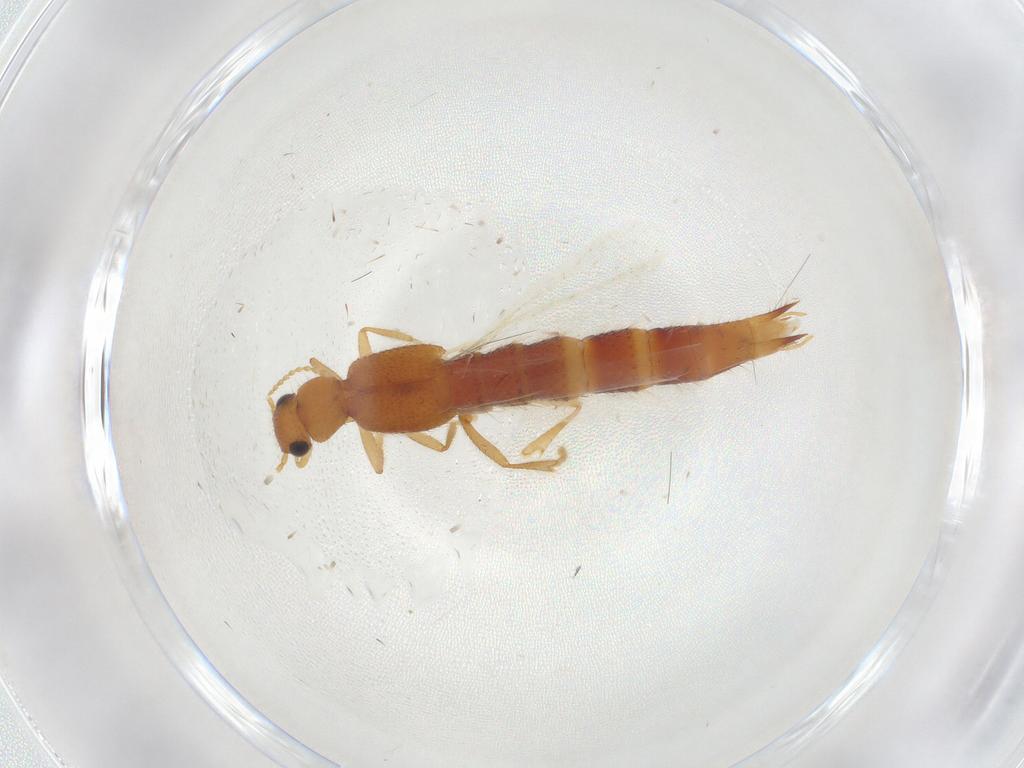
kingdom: Animalia
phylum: Arthropoda
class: Insecta
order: Coleoptera
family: Staphylinidae
